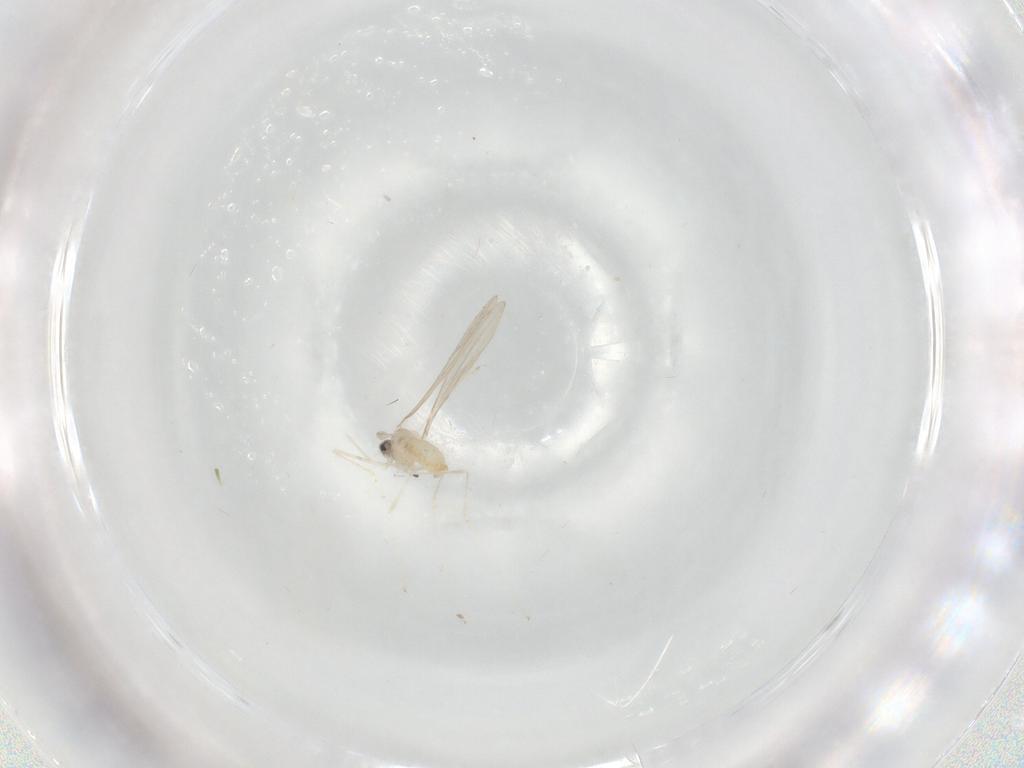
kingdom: Animalia
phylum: Arthropoda
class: Insecta
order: Diptera
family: Cecidomyiidae
